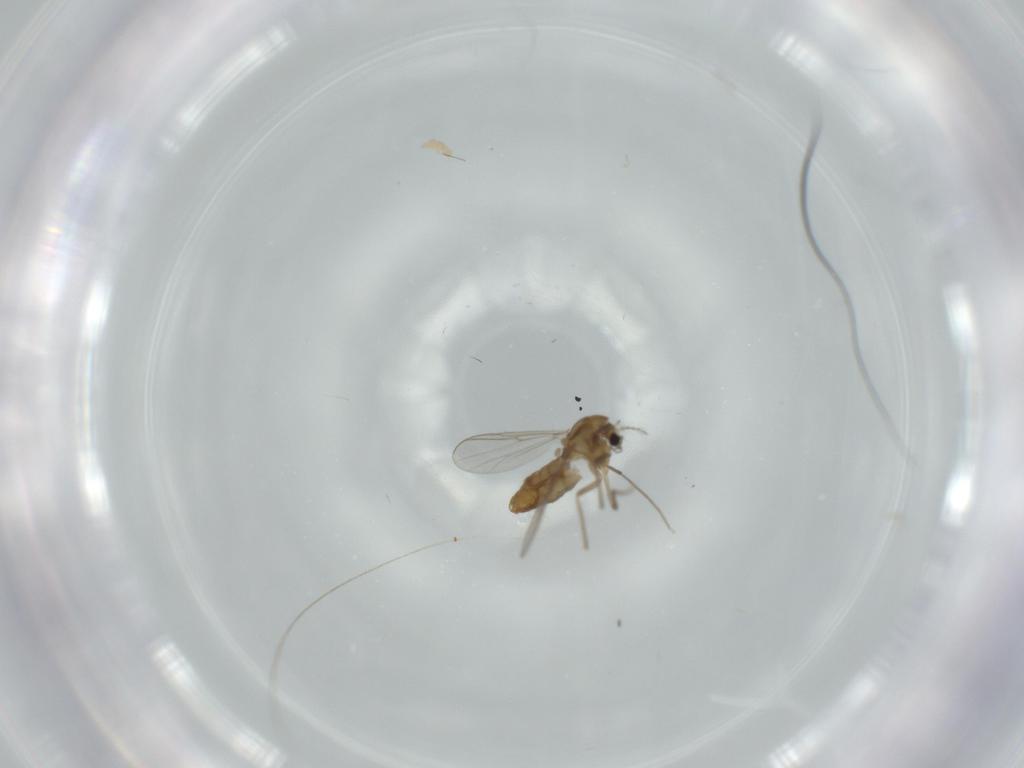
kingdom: Animalia
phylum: Arthropoda
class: Insecta
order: Diptera
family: Chironomidae
